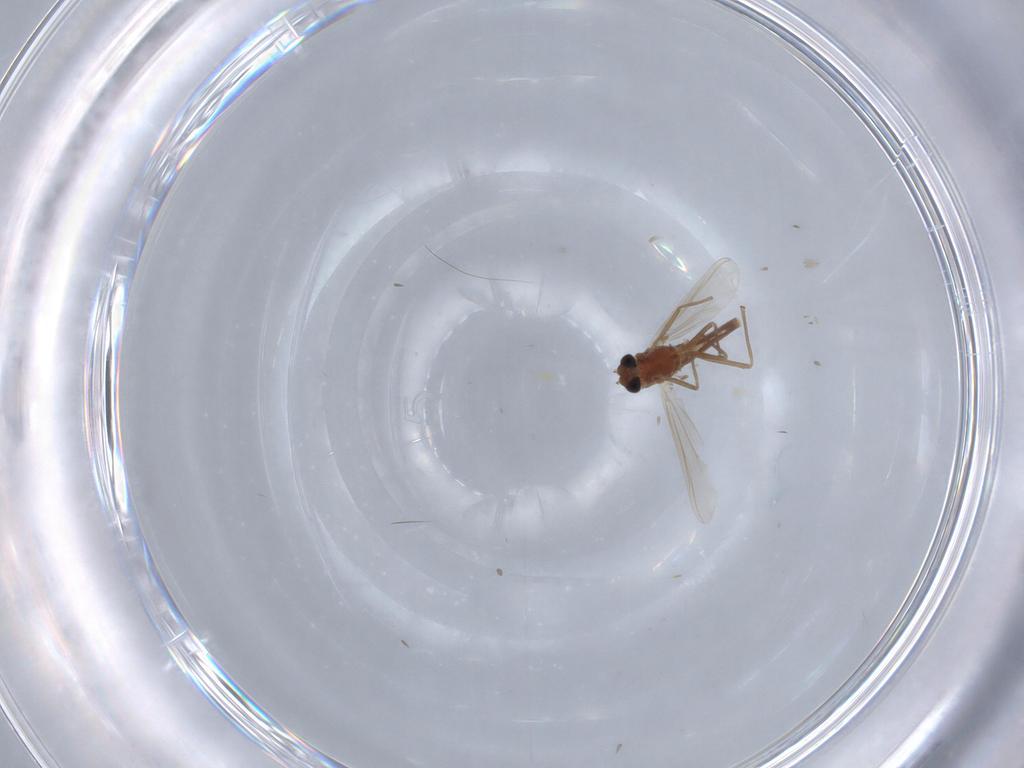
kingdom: Animalia
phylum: Arthropoda
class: Insecta
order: Diptera
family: Chironomidae
